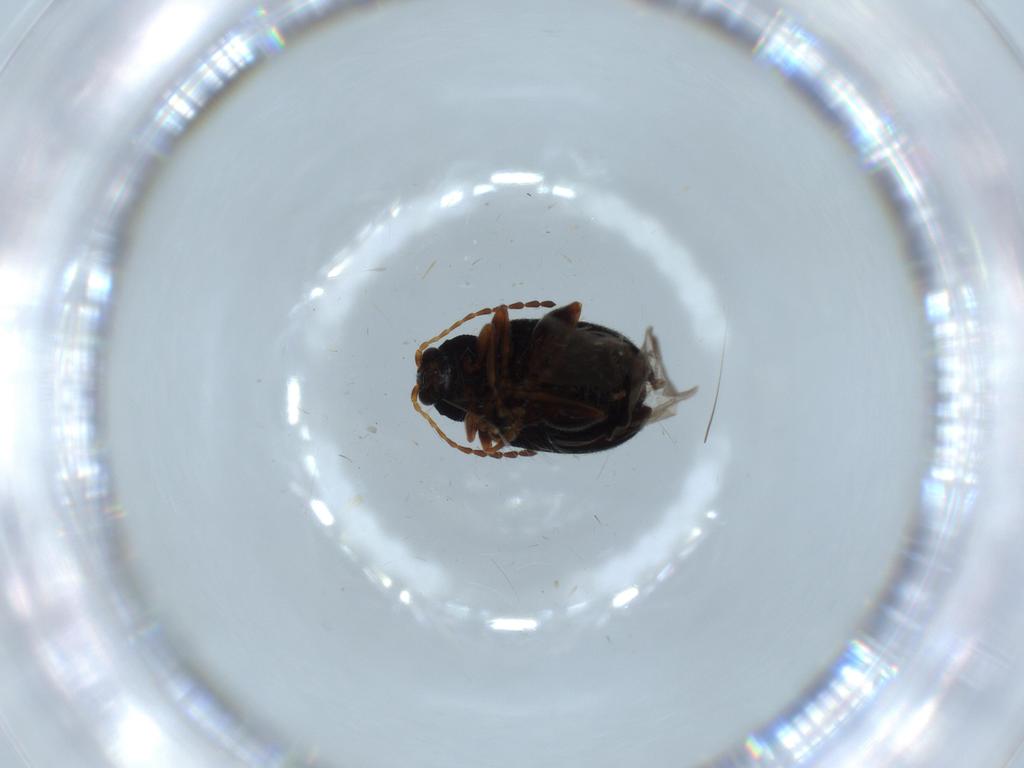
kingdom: Animalia
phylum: Arthropoda
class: Insecta
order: Coleoptera
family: Chrysomelidae
